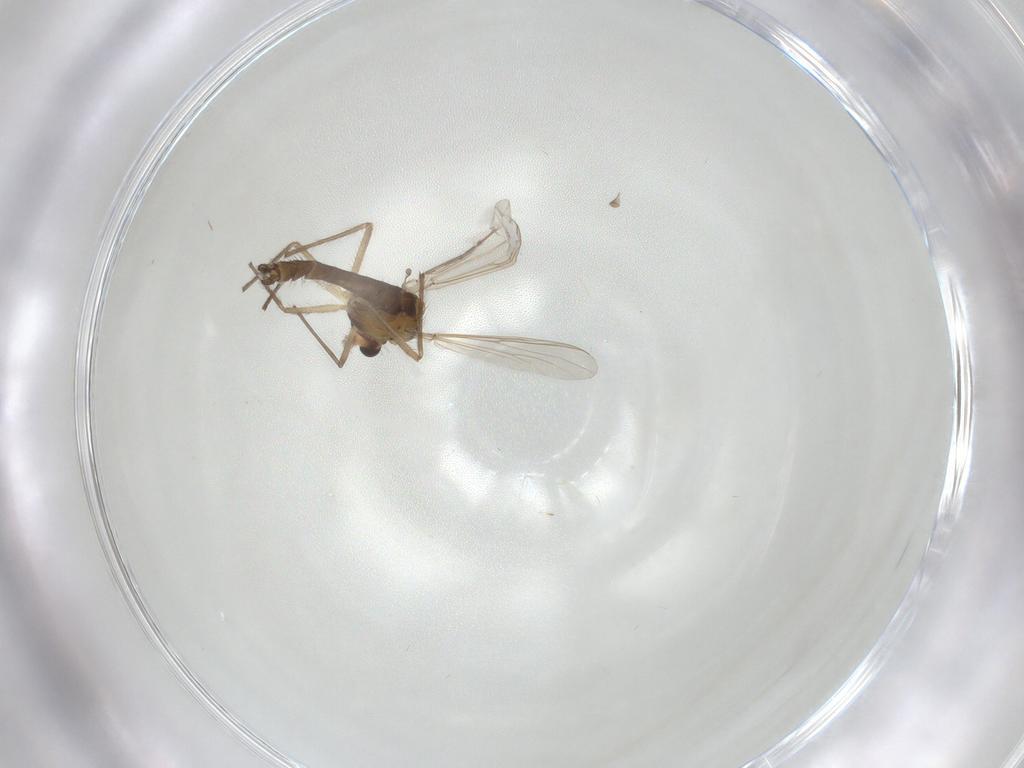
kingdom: Animalia
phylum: Arthropoda
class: Insecta
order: Diptera
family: Chironomidae
